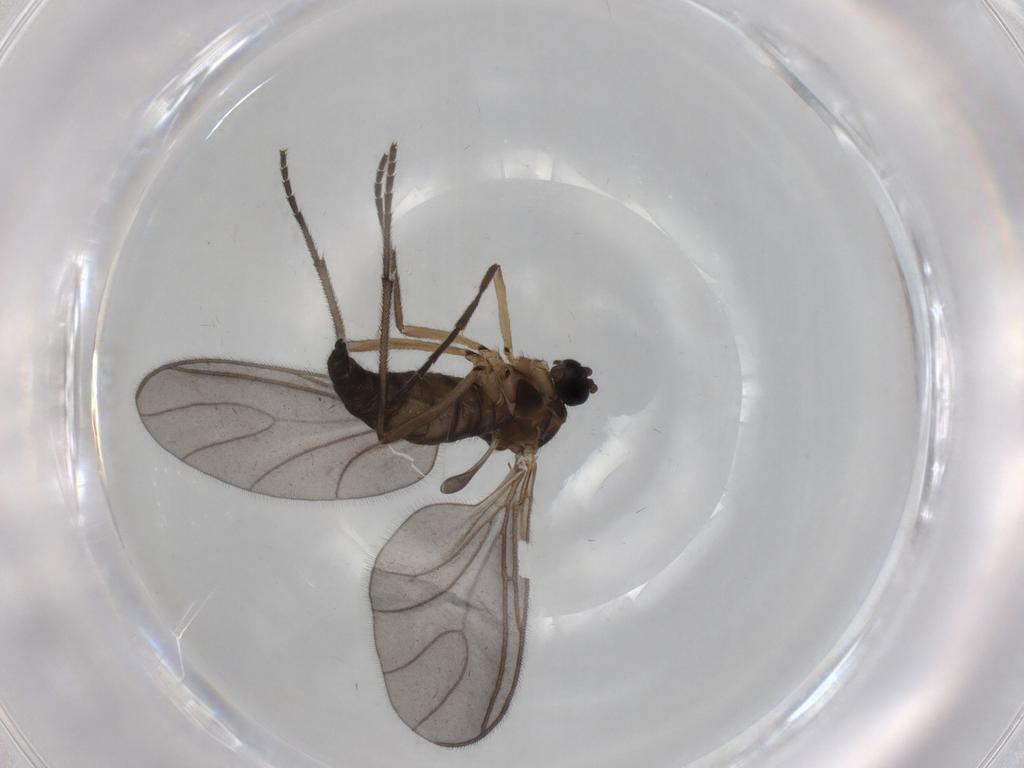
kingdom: Animalia
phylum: Arthropoda
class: Insecta
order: Diptera
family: Sciaridae
